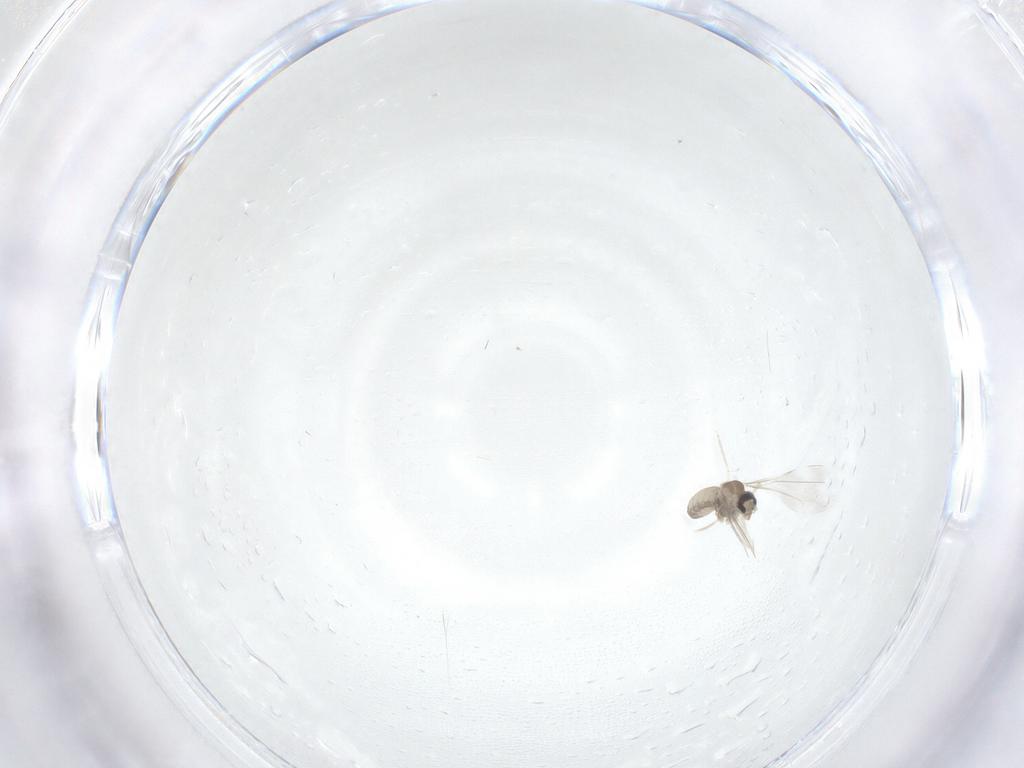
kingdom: Animalia
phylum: Arthropoda
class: Insecta
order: Diptera
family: Cecidomyiidae
